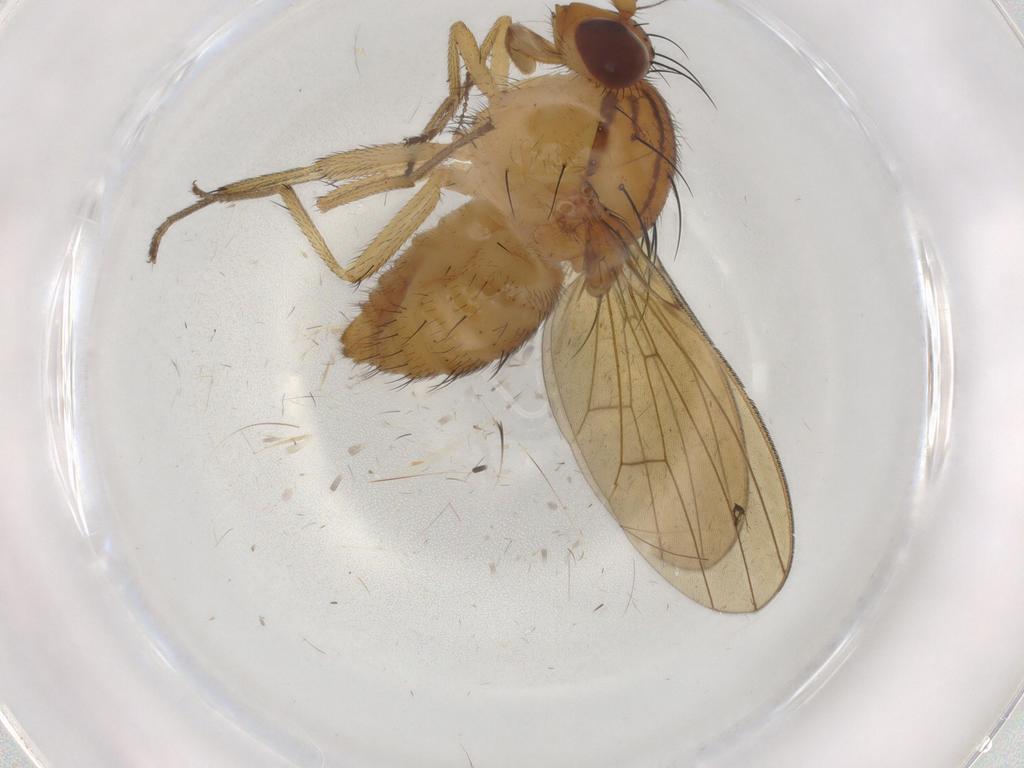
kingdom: Animalia
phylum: Arthropoda
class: Insecta
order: Diptera
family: Lauxaniidae
